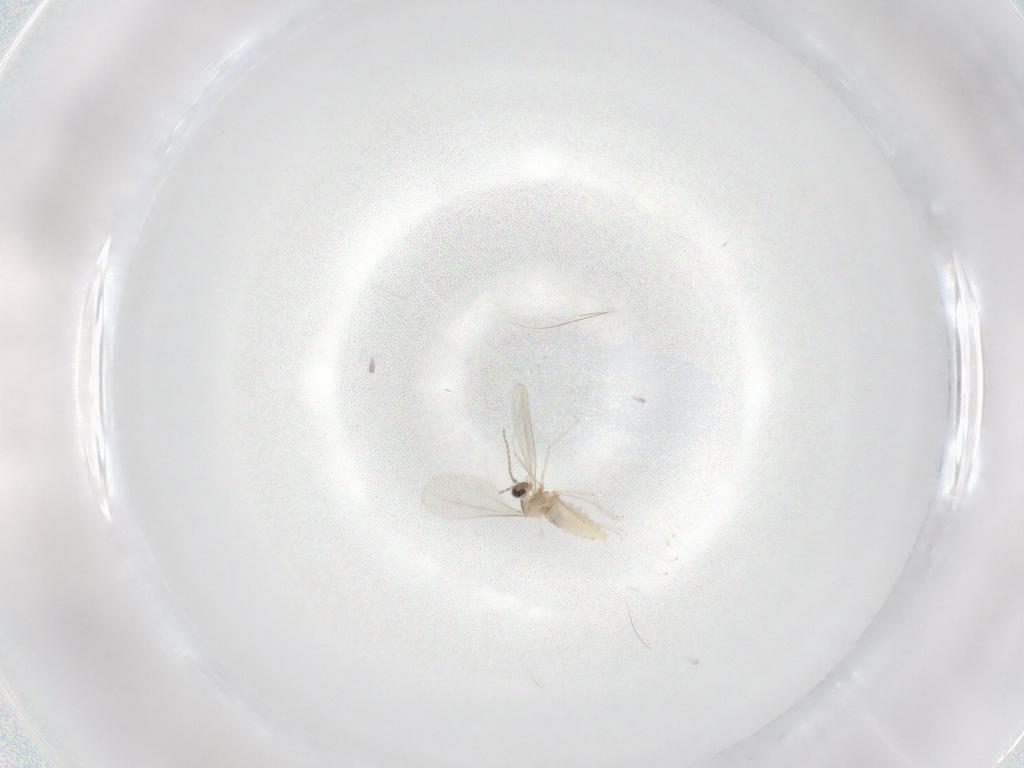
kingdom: Animalia
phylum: Arthropoda
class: Insecta
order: Diptera
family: Cecidomyiidae
